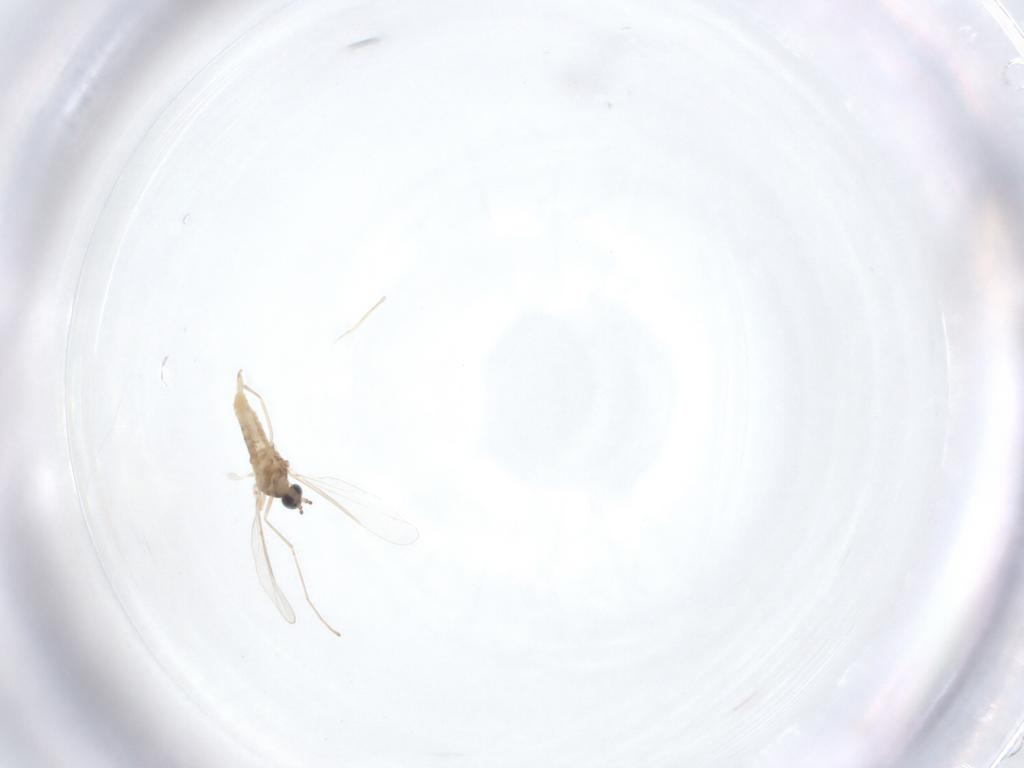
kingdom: Animalia
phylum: Arthropoda
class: Insecta
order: Diptera
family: Cecidomyiidae
